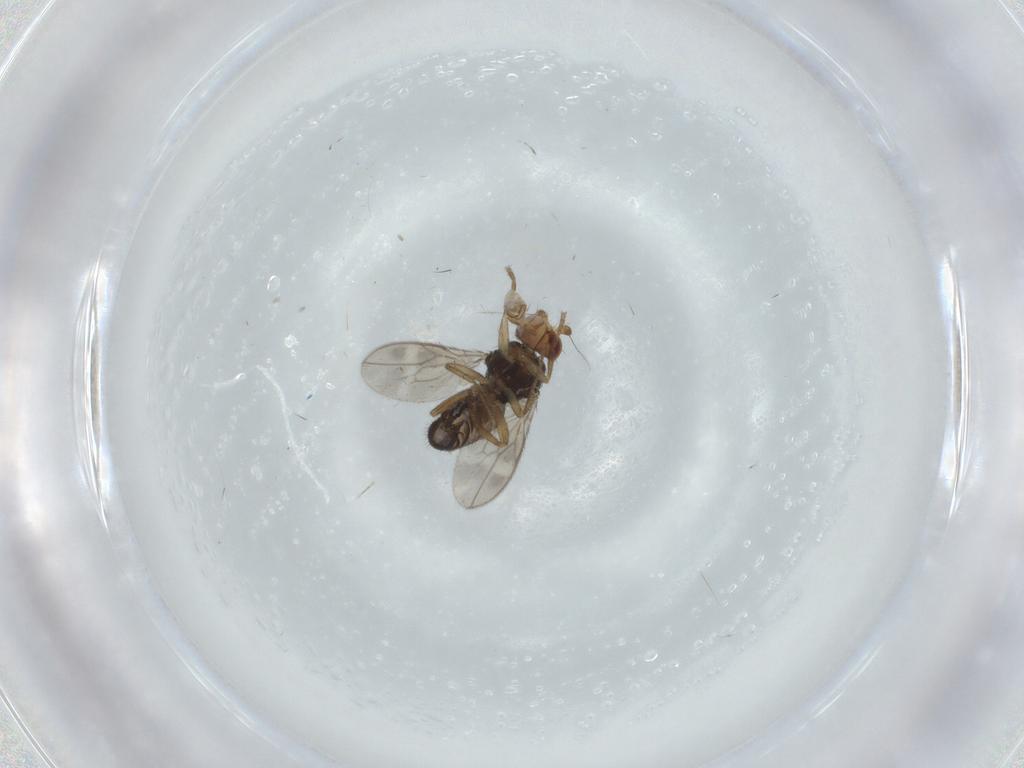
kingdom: Animalia
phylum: Arthropoda
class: Insecta
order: Diptera
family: Sphaeroceridae
